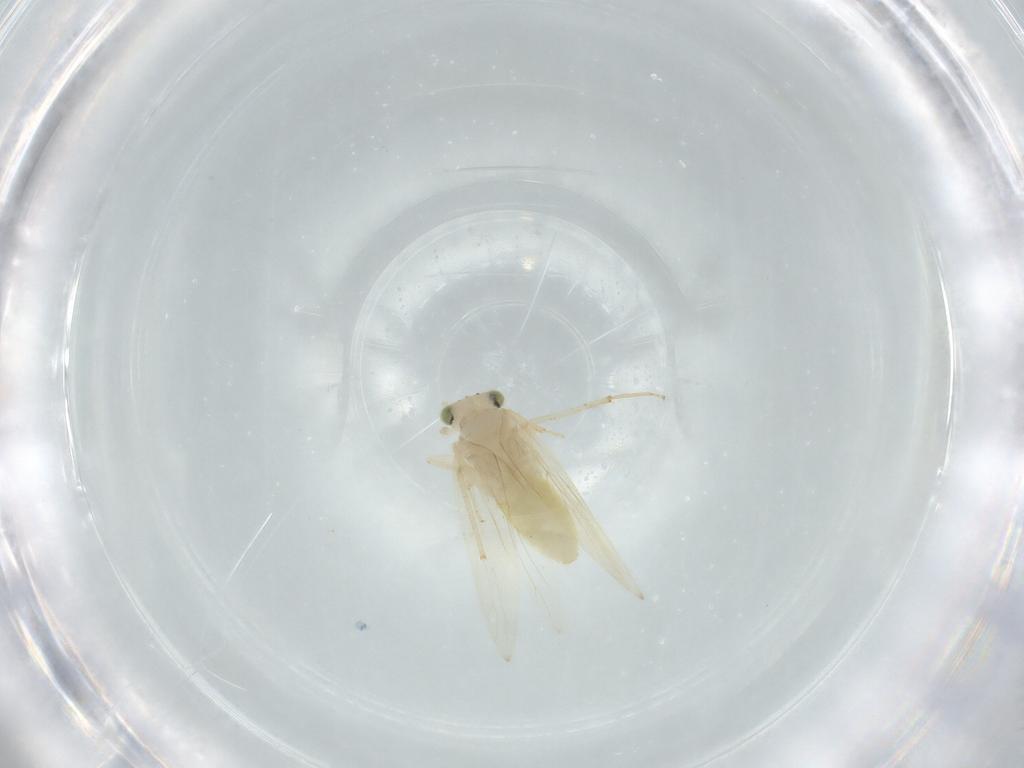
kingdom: Animalia
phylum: Arthropoda
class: Insecta
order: Psocodea
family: Lepidopsocidae
